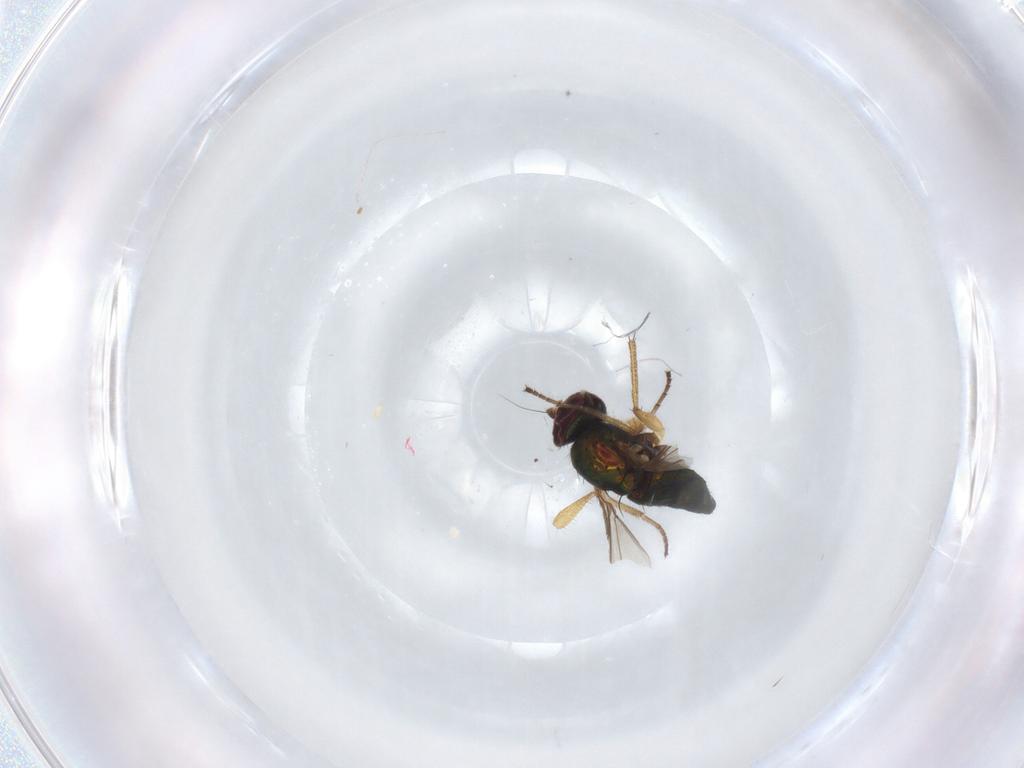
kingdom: Animalia
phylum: Arthropoda
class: Insecta
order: Diptera
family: Dolichopodidae
